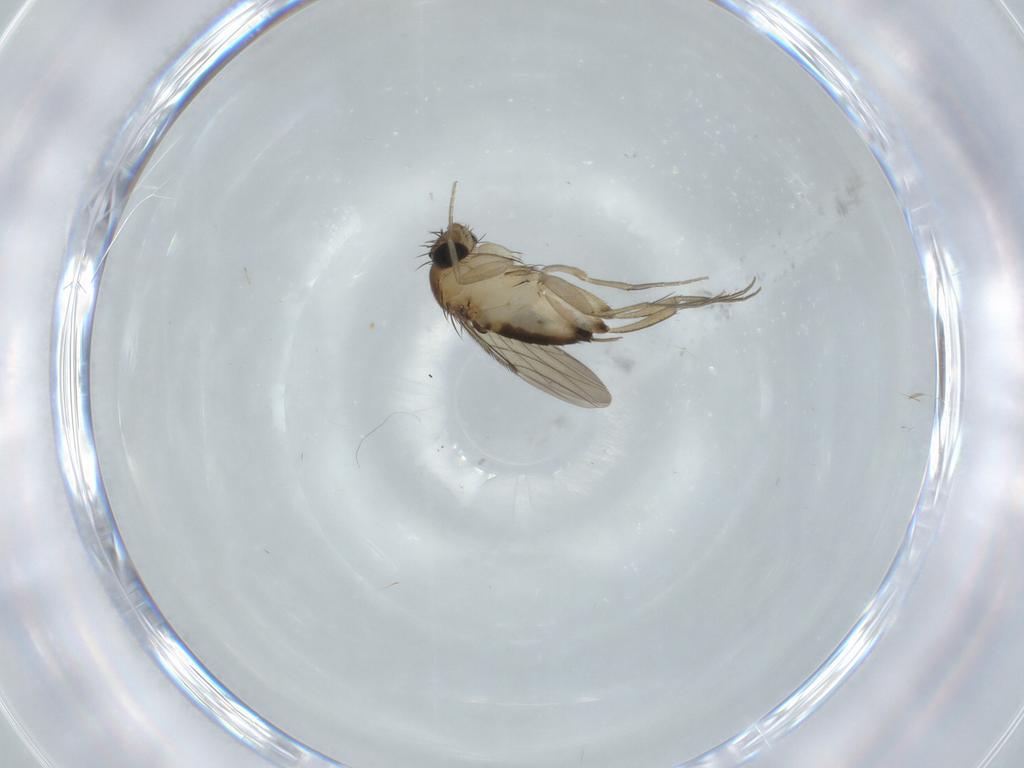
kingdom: Animalia
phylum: Arthropoda
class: Insecta
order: Diptera
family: Phoridae
